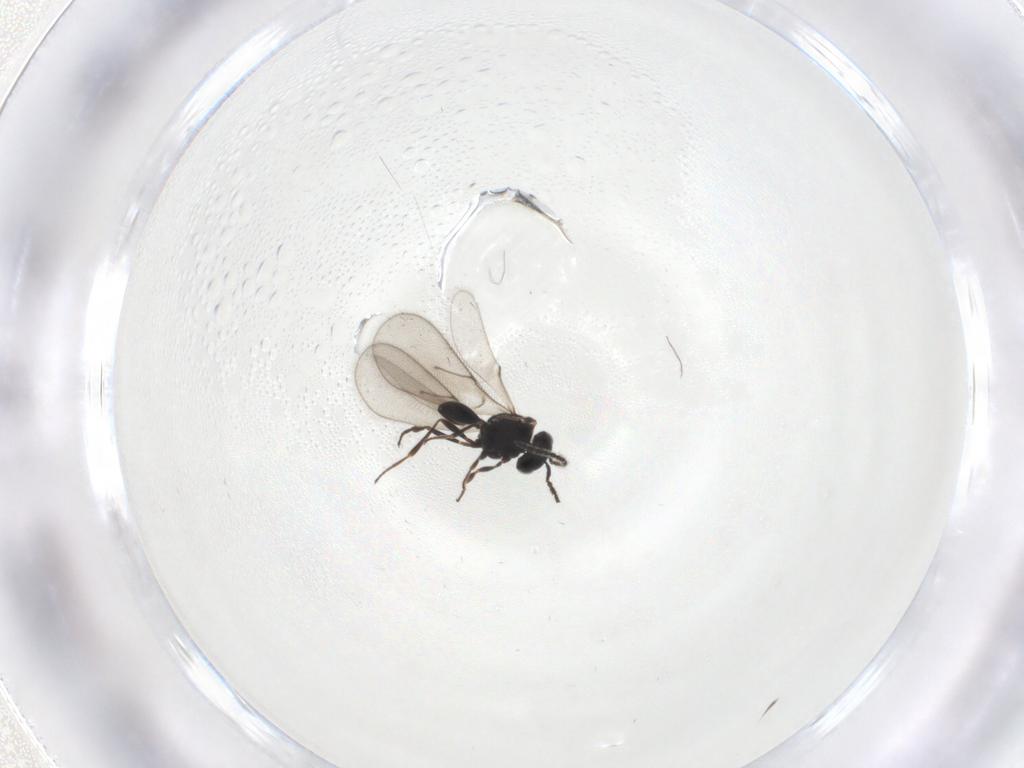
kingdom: Animalia
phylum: Arthropoda
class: Insecta
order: Hymenoptera
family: Scelionidae
